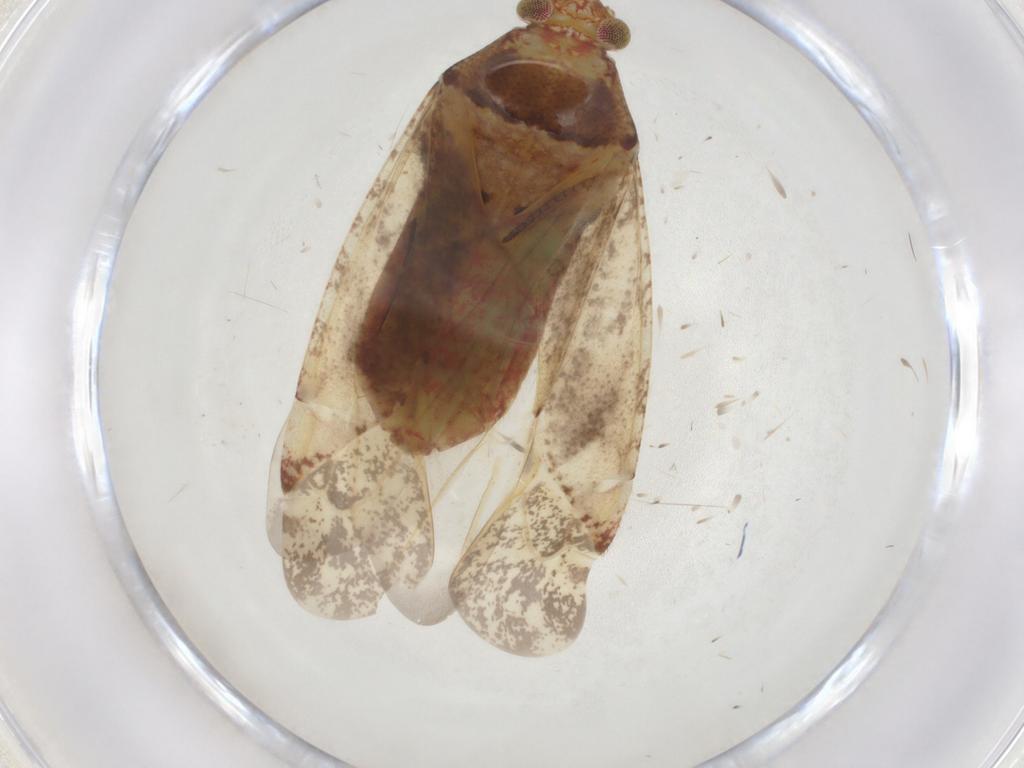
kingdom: Animalia
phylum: Arthropoda
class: Insecta
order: Hemiptera
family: Miridae
